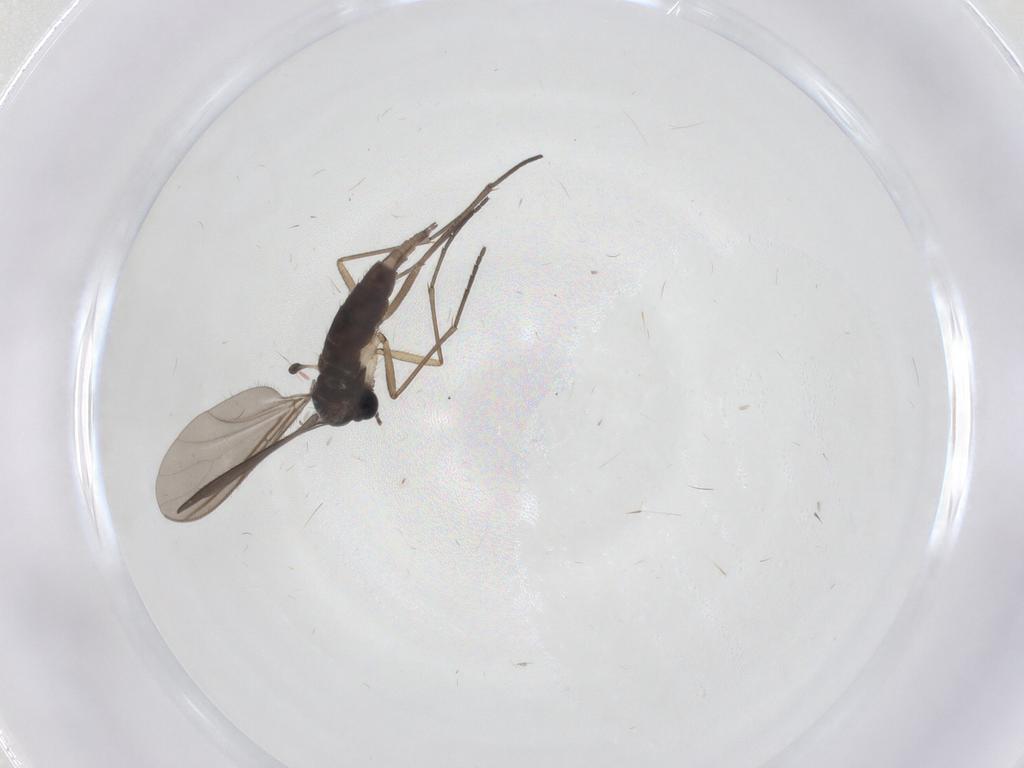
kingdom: Animalia
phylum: Arthropoda
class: Insecta
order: Diptera
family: Sciaridae
